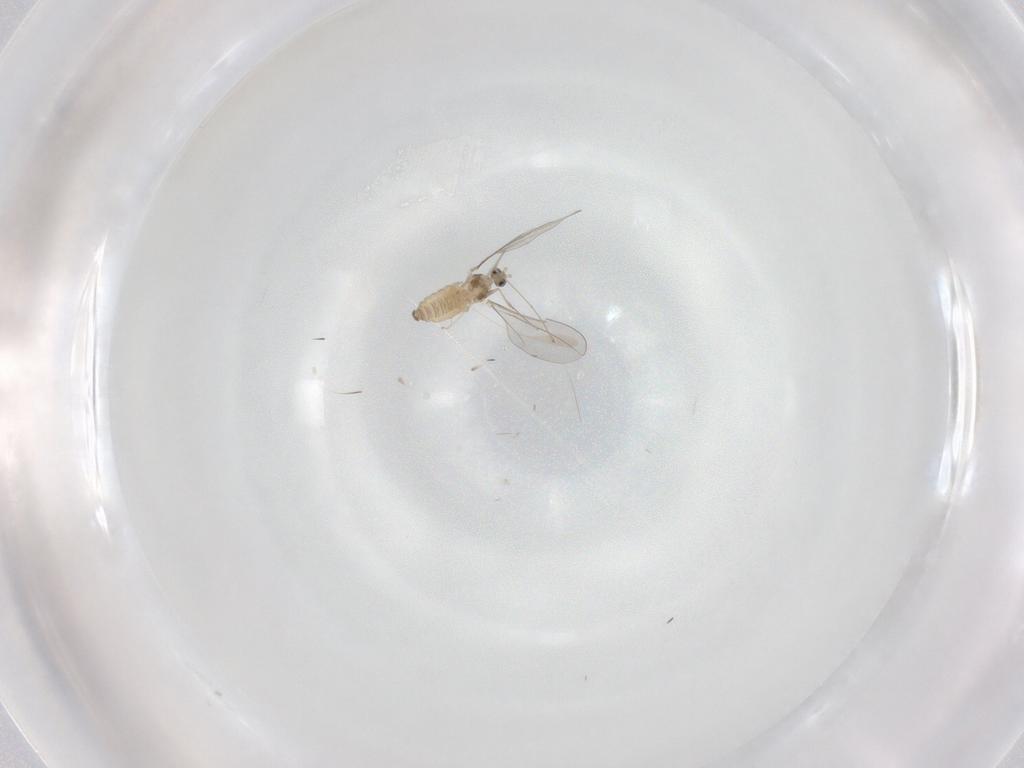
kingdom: Animalia
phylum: Arthropoda
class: Insecta
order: Diptera
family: Cecidomyiidae
